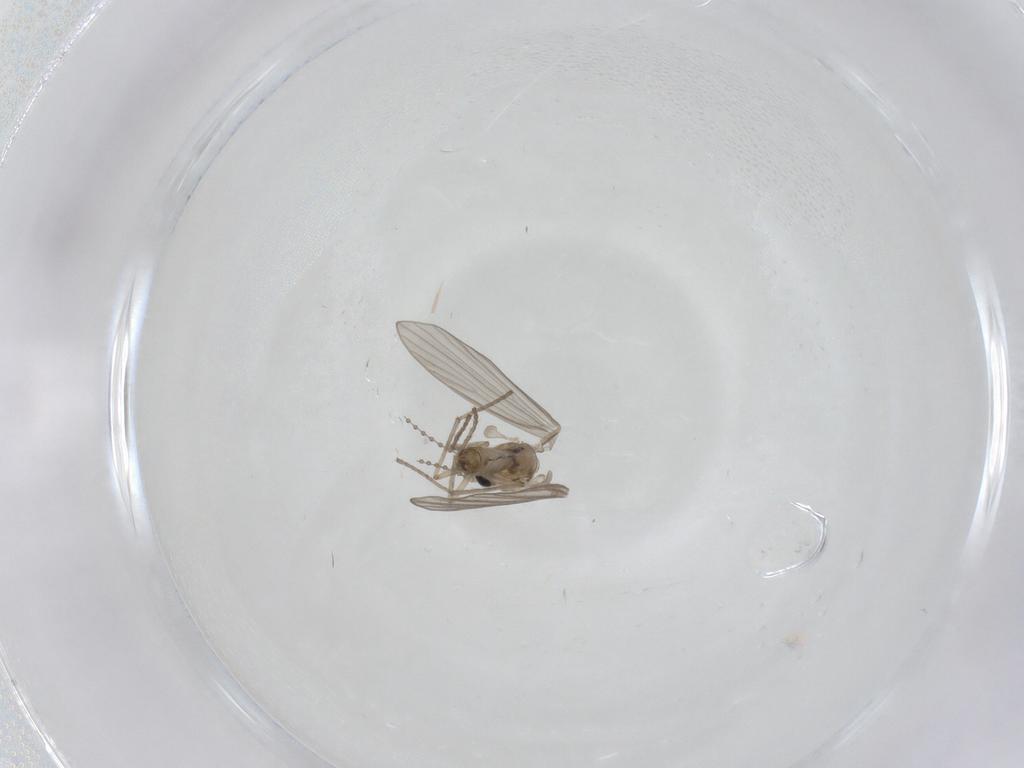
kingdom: Animalia
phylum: Arthropoda
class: Insecta
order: Diptera
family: Psychodidae
